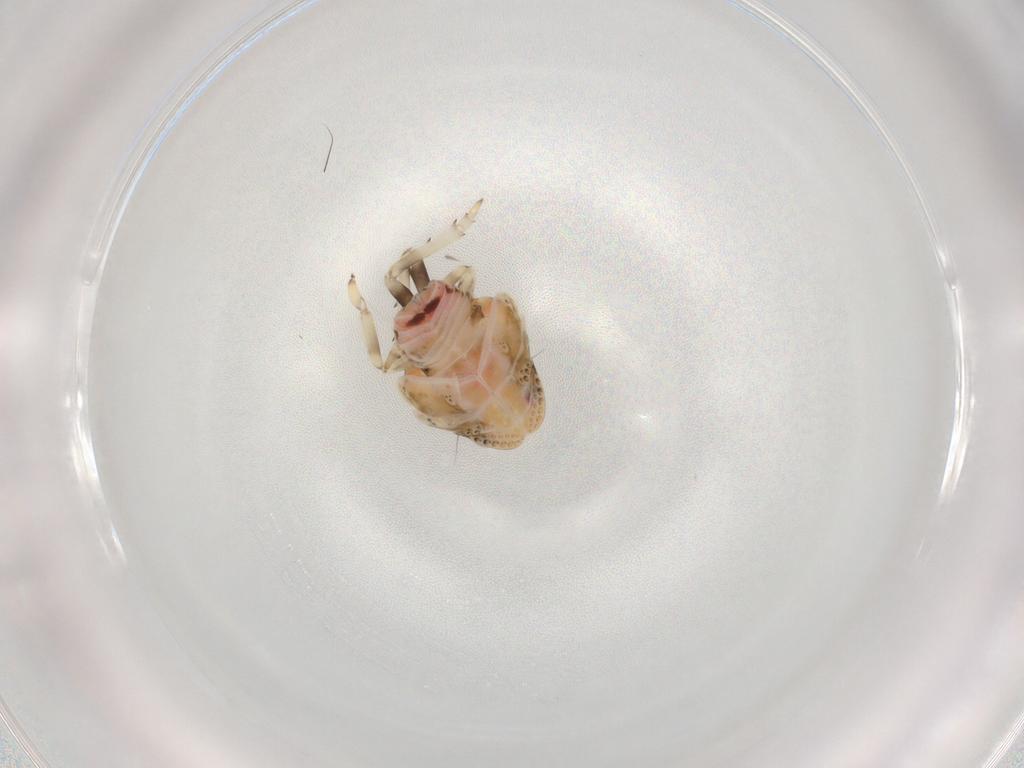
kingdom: Animalia
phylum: Arthropoda
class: Insecta
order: Hemiptera
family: Nogodinidae
